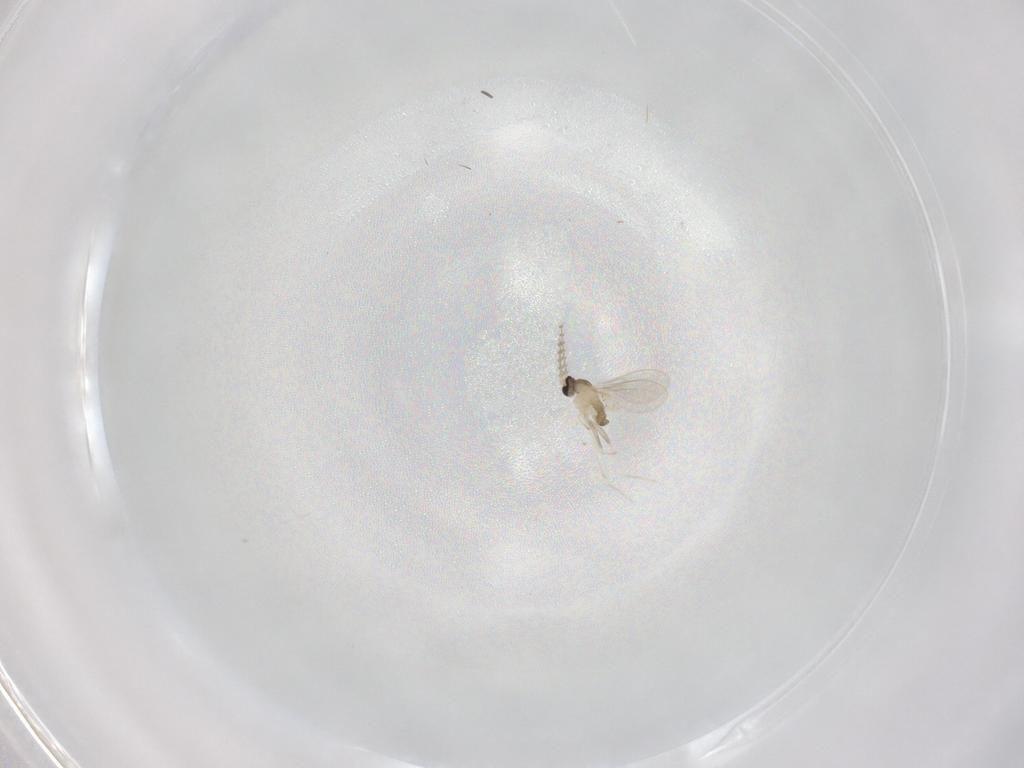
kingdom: Animalia
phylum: Arthropoda
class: Insecta
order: Diptera
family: Cecidomyiidae
